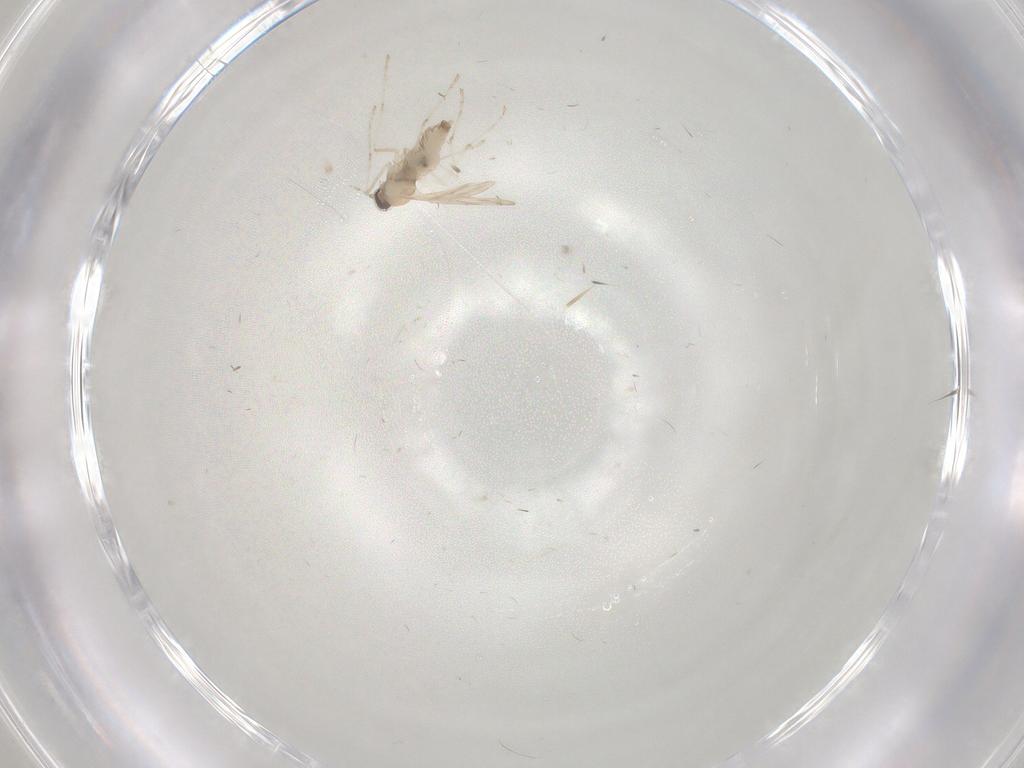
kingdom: Animalia
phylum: Arthropoda
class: Insecta
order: Diptera
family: Cecidomyiidae
